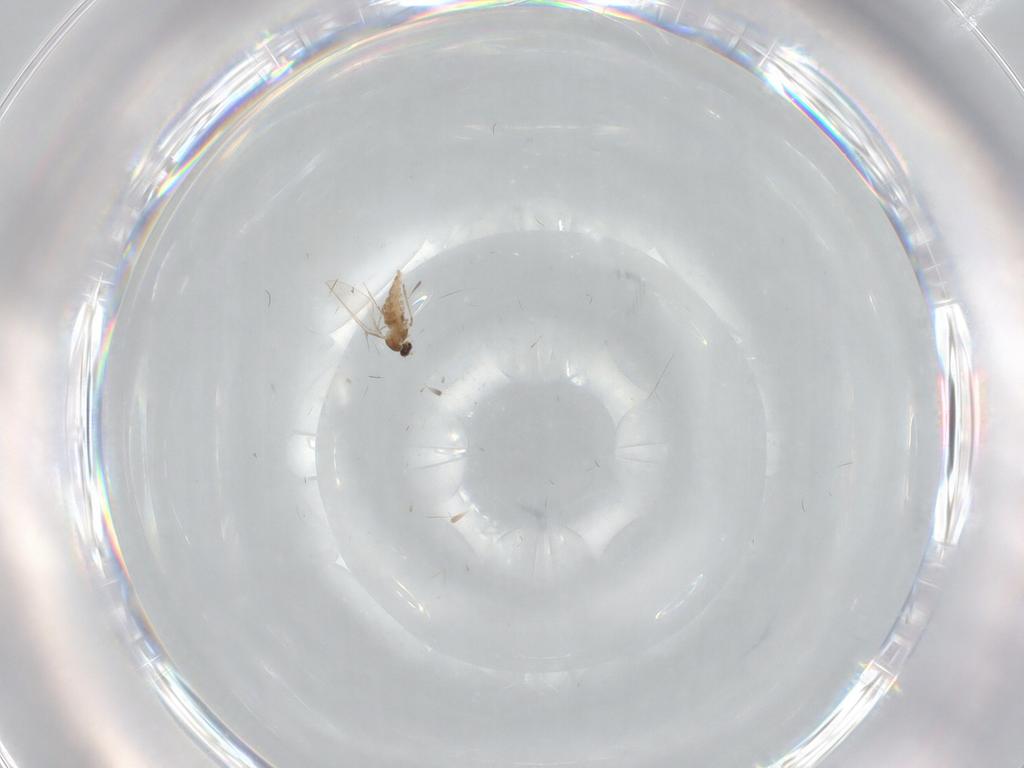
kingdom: Animalia
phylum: Arthropoda
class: Insecta
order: Diptera
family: Cecidomyiidae
